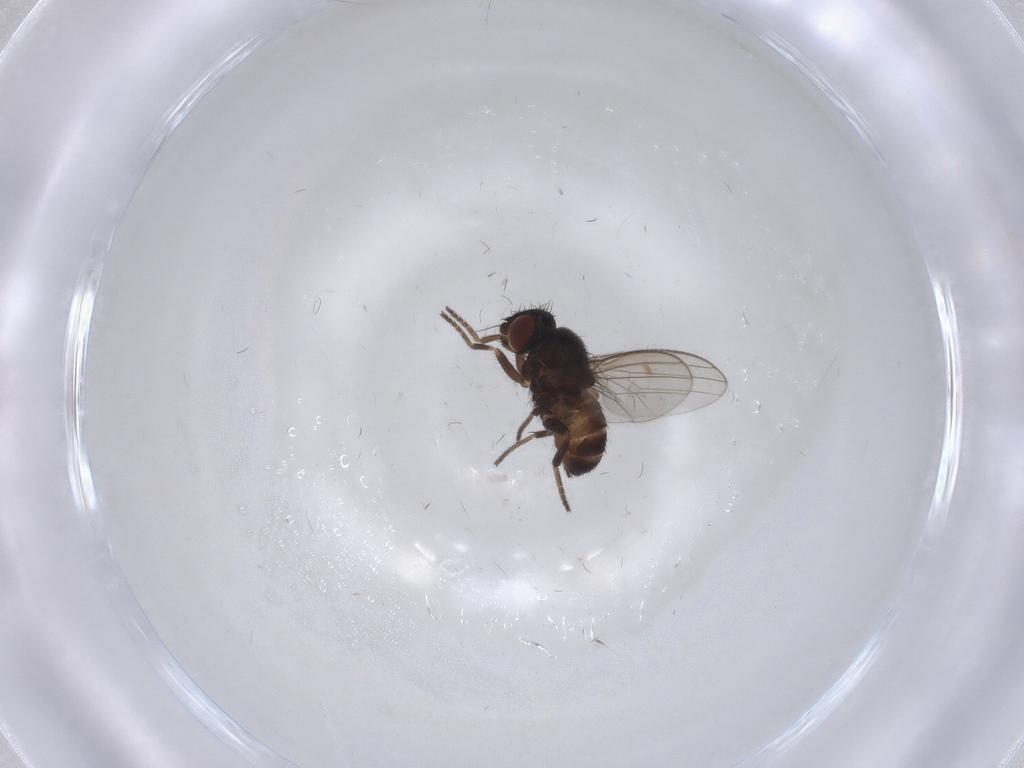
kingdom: Animalia
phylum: Arthropoda
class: Insecta
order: Diptera
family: Milichiidae
